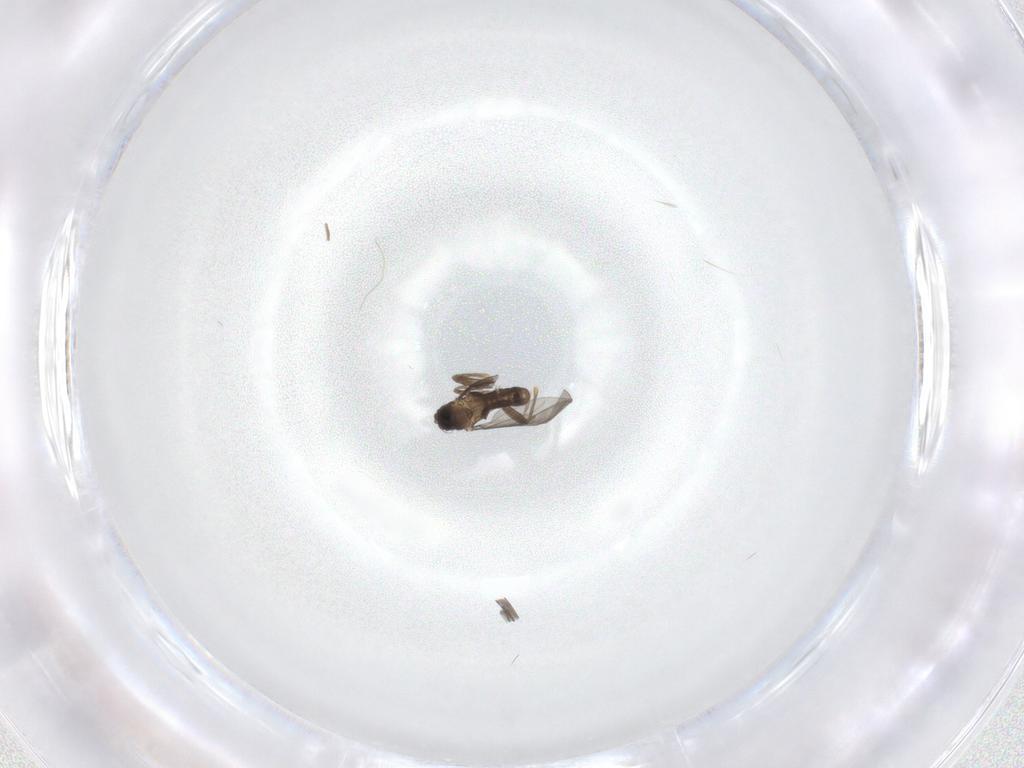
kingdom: Animalia
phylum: Arthropoda
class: Insecta
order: Diptera
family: Chironomidae
